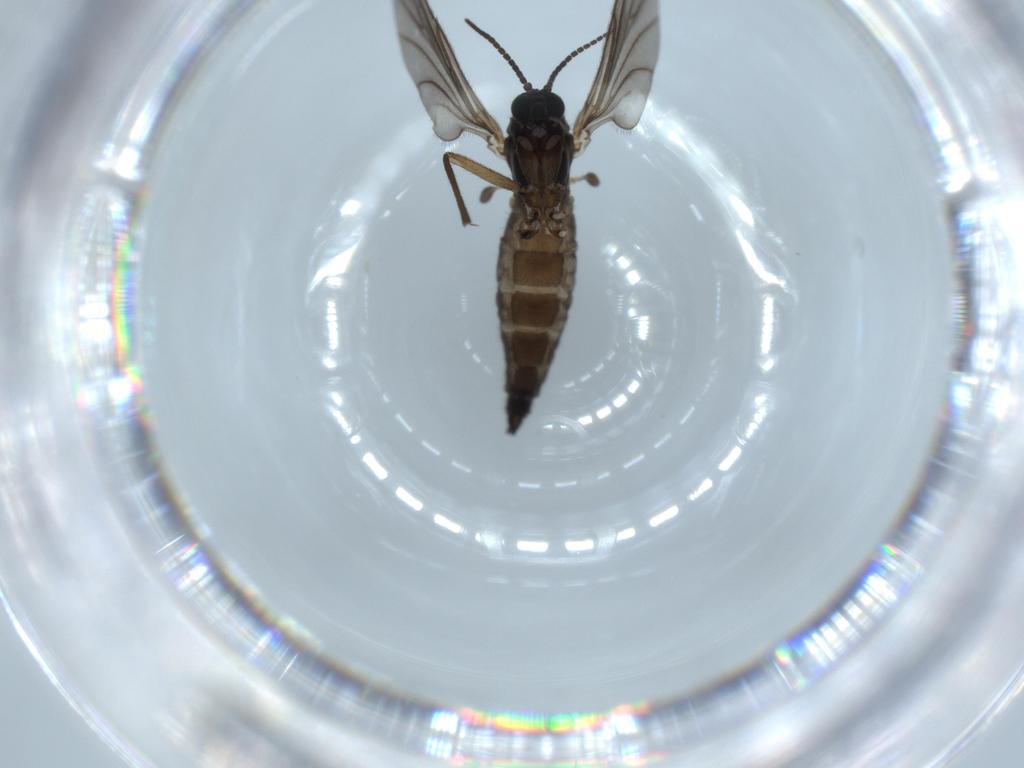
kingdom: Animalia
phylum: Arthropoda
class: Insecta
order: Diptera
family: Sciaridae
